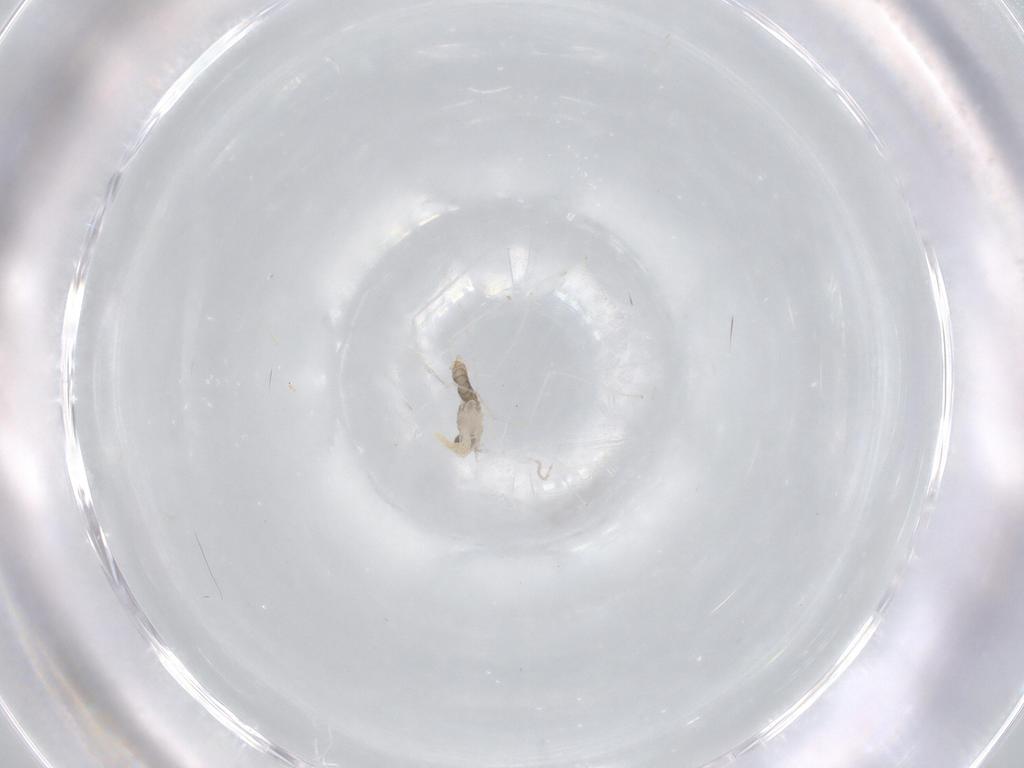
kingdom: Animalia
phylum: Arthropoda
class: Insecta
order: Diptera
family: Cecidomyiidae
